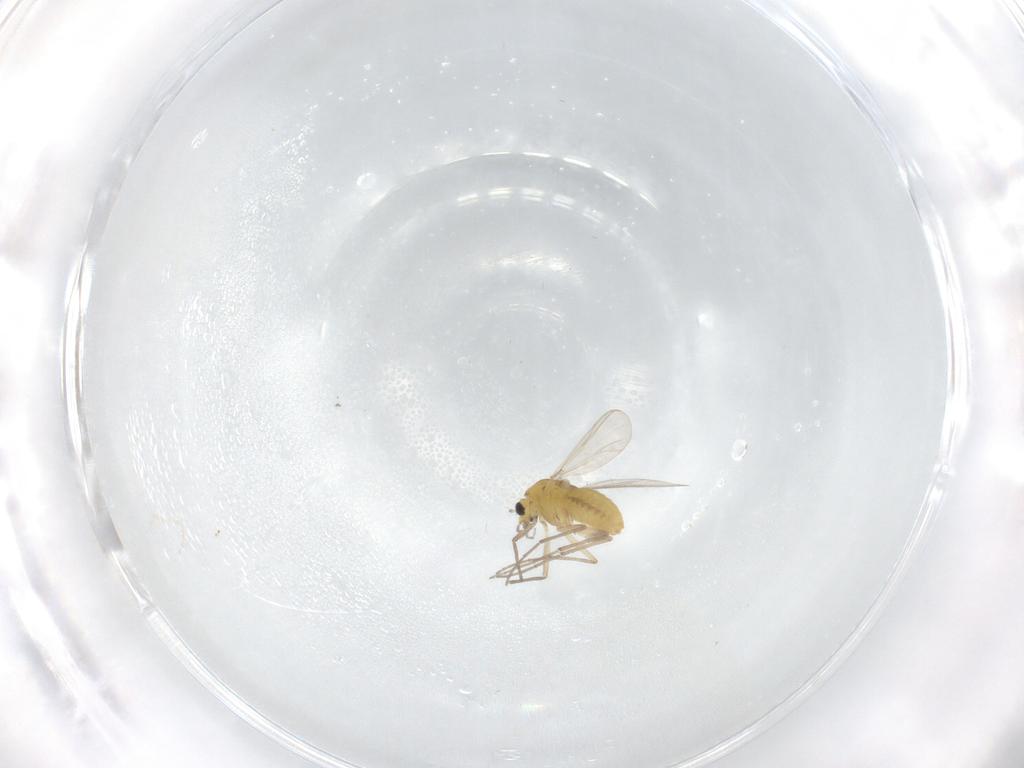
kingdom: Animalia
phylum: Arthropoda
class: Insecta
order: Diptera
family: Chironomidae
